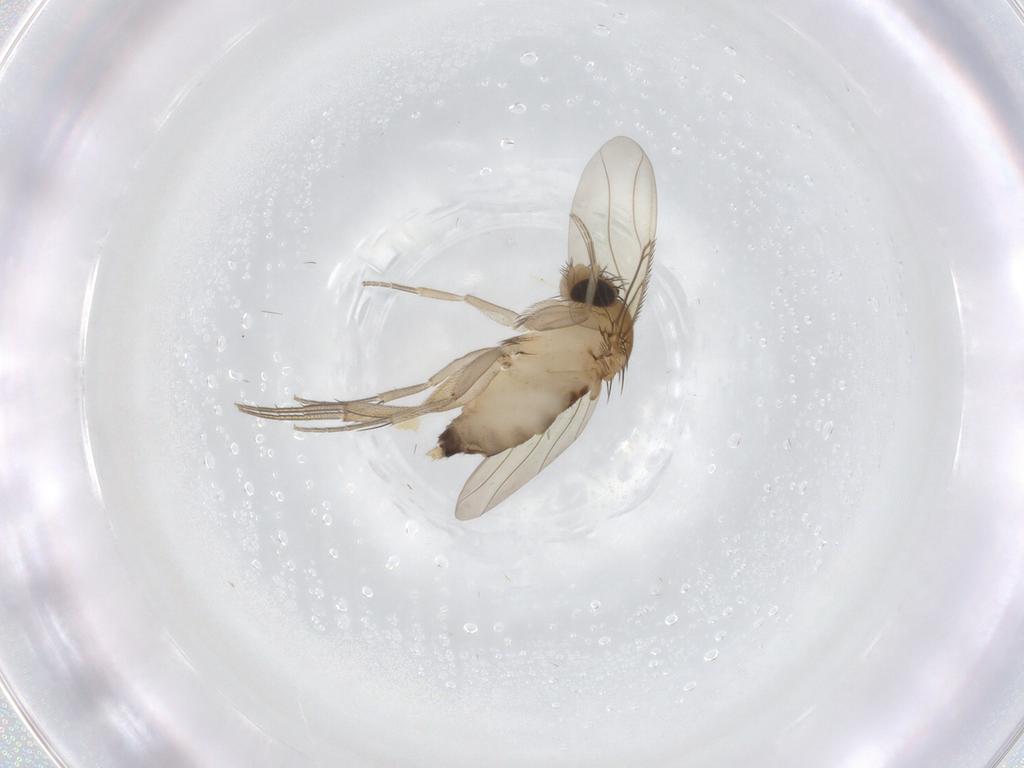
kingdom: Animalia
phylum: Arthropoda
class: Insecta
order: Diptera
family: Phoridae
